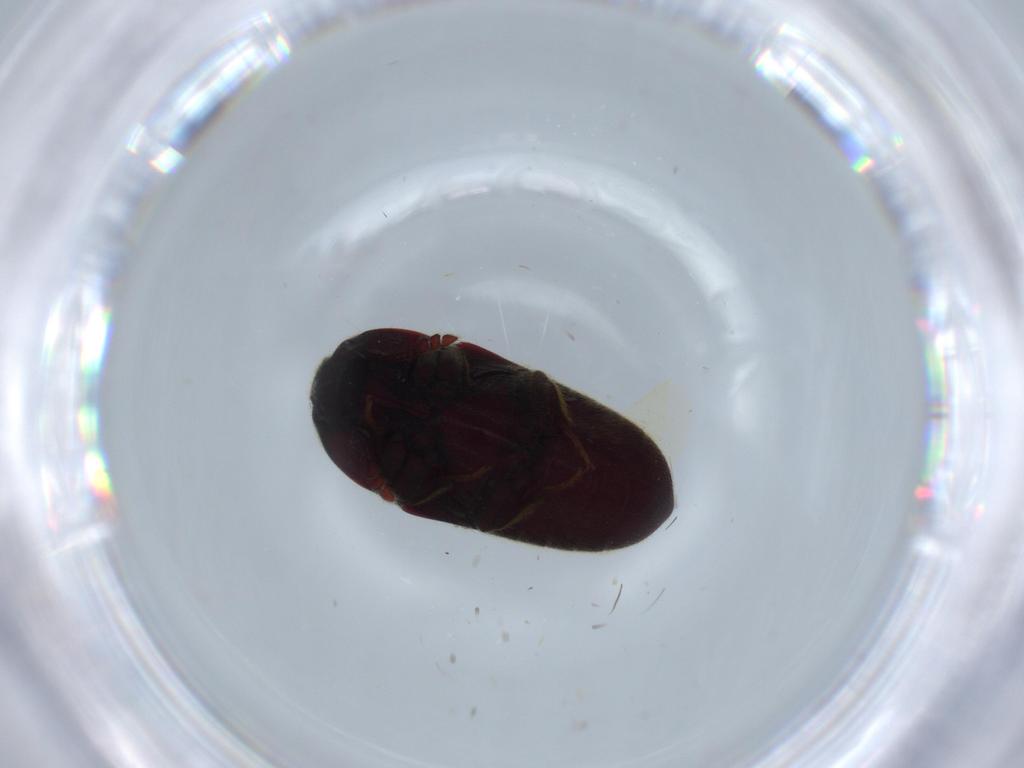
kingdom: Animalia
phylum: Arthropoda
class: Insecta
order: Coleoptera
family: Throscidae
